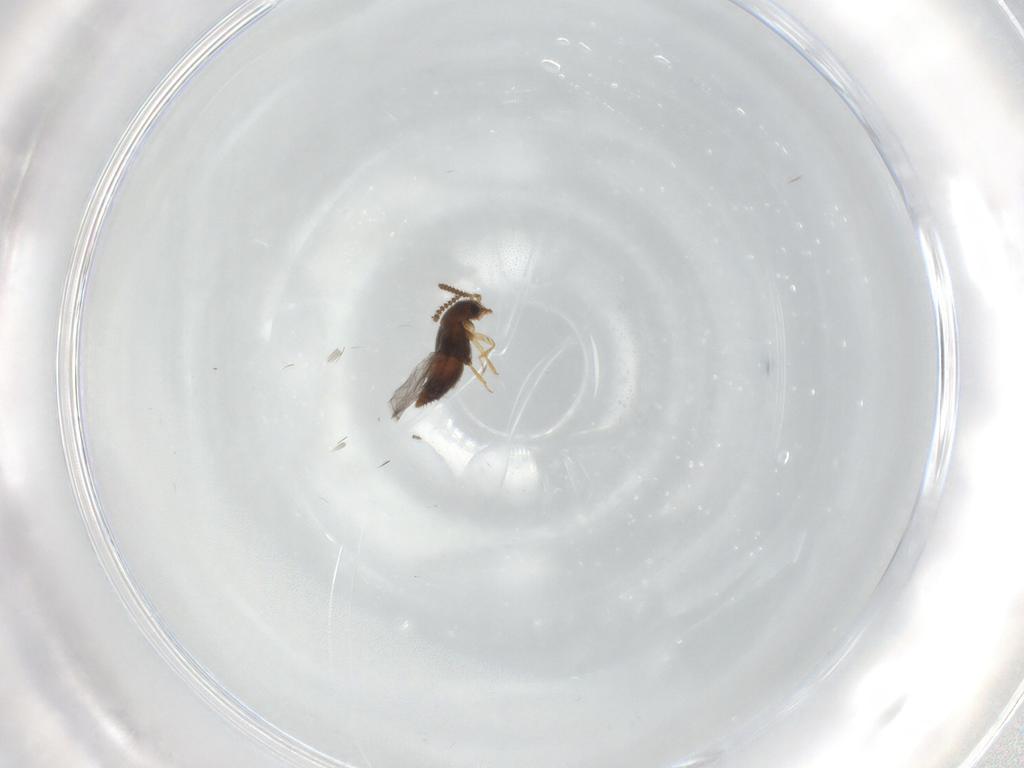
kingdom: Animalia
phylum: Arthropoda
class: Insecta
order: Coleoptera
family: Staphylinidae
